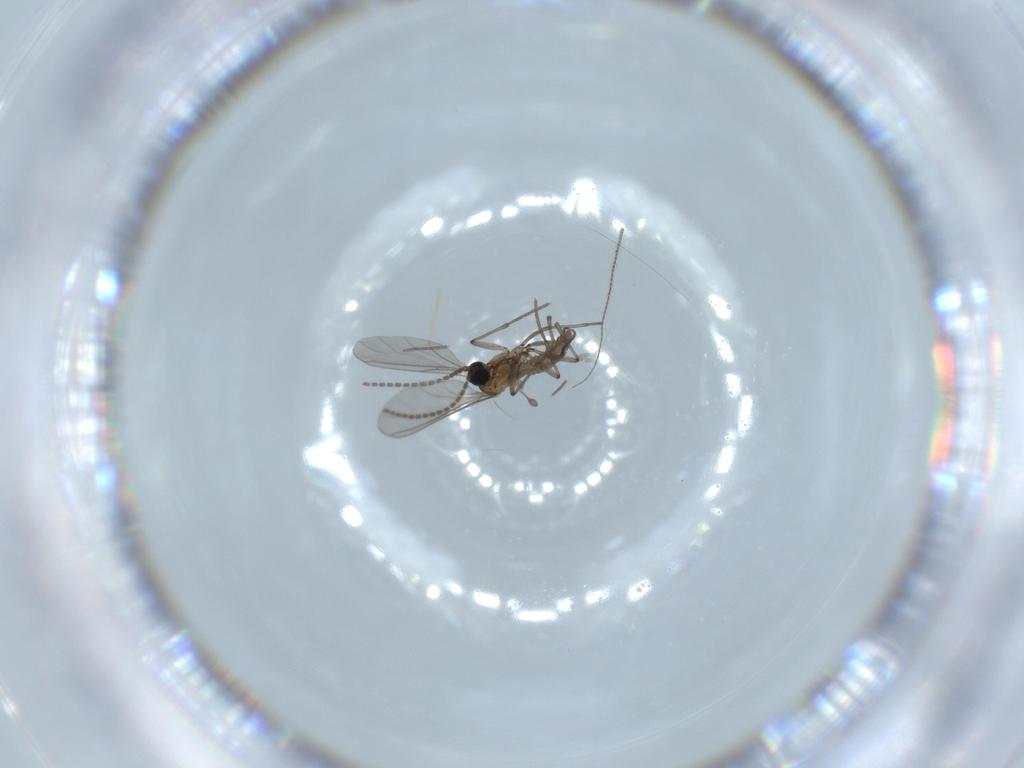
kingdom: Animalia
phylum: Arthropoda
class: Insecta
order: Diptera
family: Sciaridae
